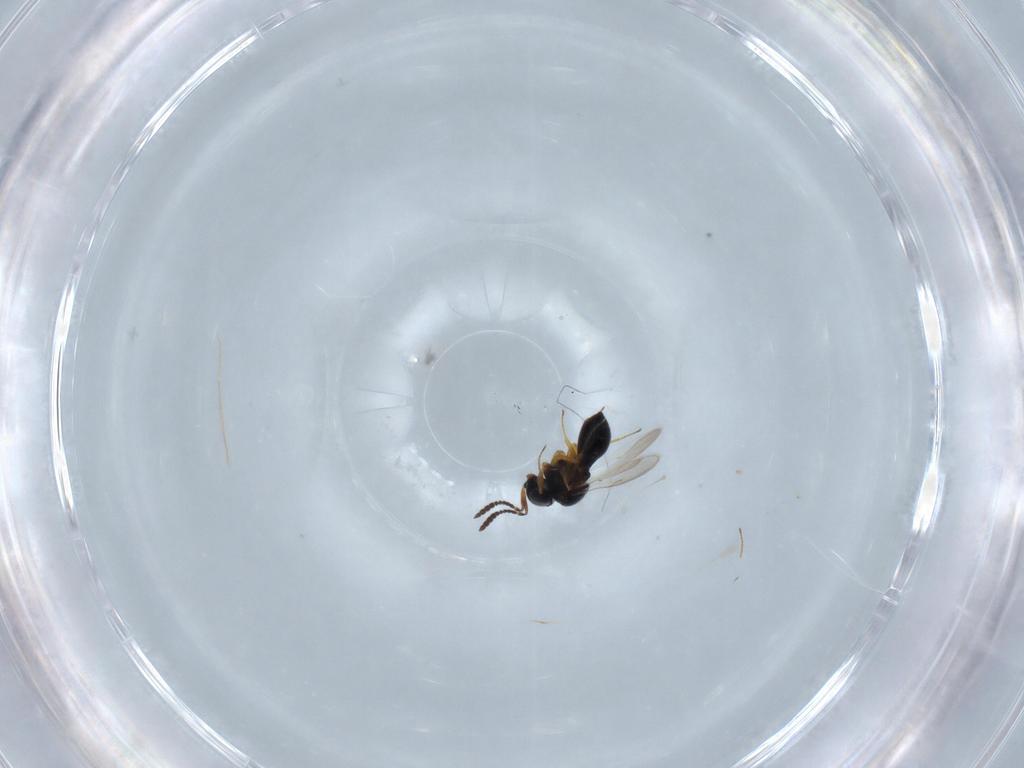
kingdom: Animalia
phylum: Arthropoda
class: Insecta
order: Hymenoptera
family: Scelionidae
